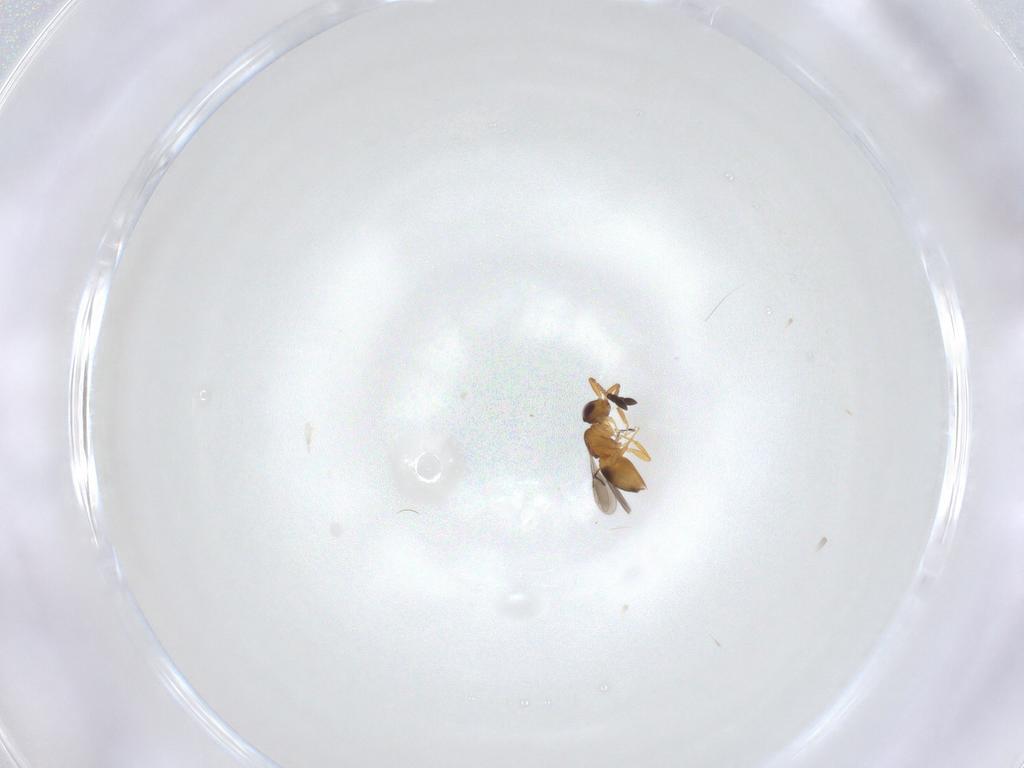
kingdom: Animalia
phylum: Arthropoda
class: Insecta
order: Hymenoptera
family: Ceraphronidae
